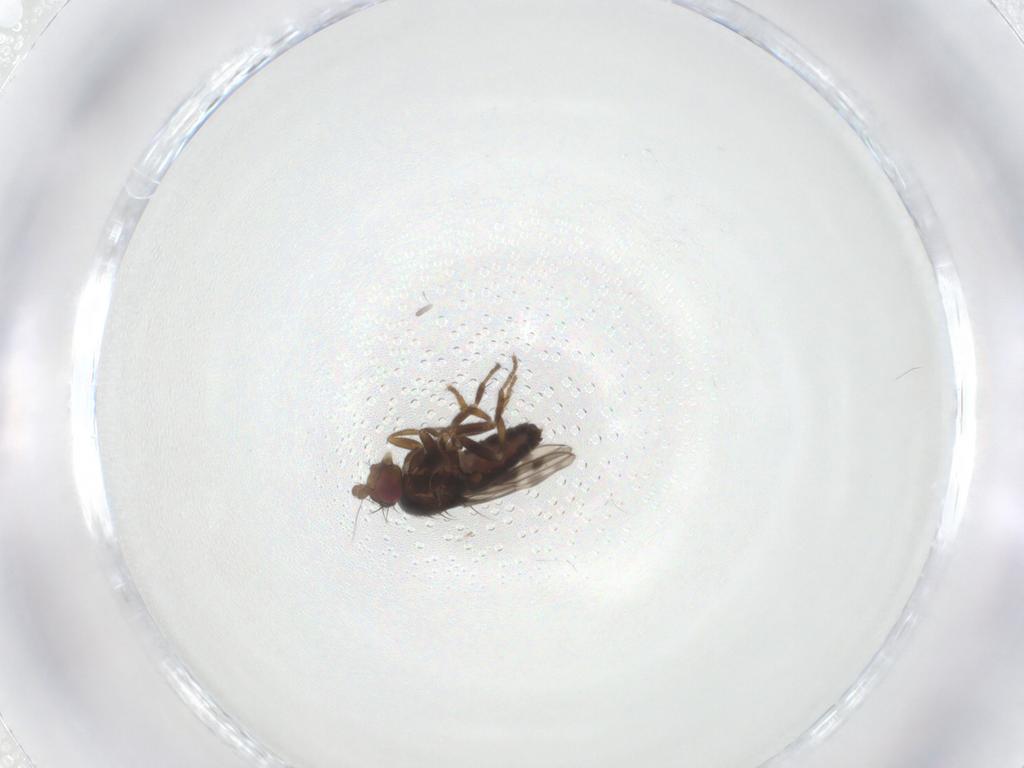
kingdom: Animalia
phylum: Arthropoda
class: Insecta
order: Diptera
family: Sphaeroceridae
